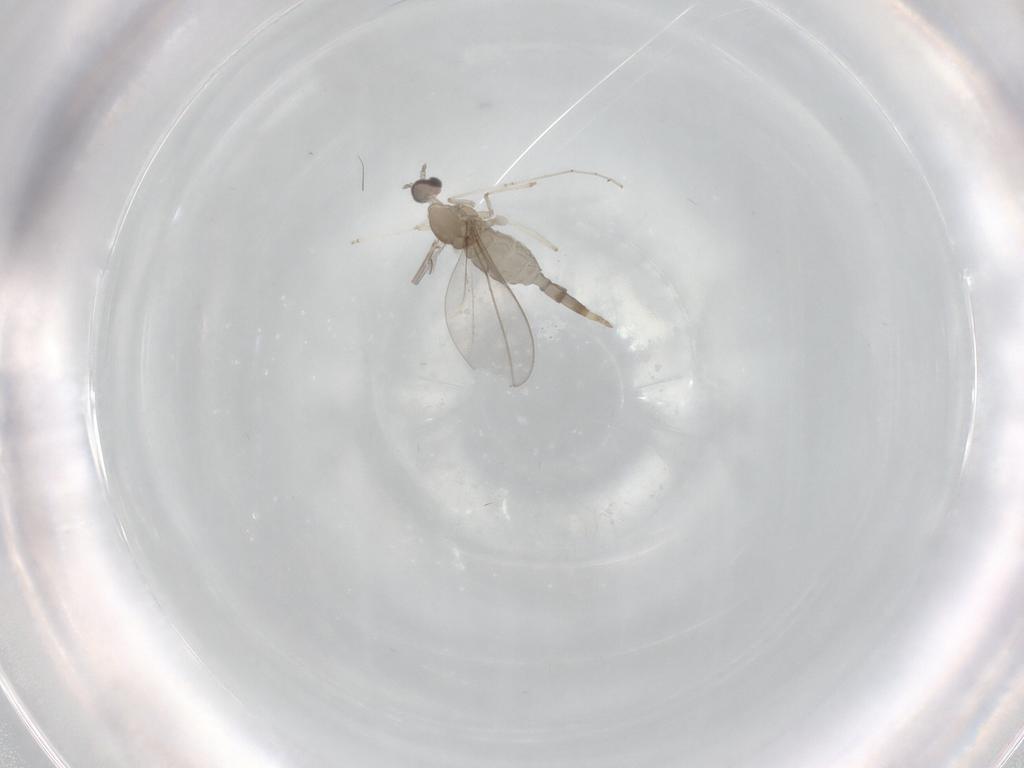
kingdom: Animalia
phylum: Arthropoda
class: Insecta
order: Diptera
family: Cecidomyiidae
